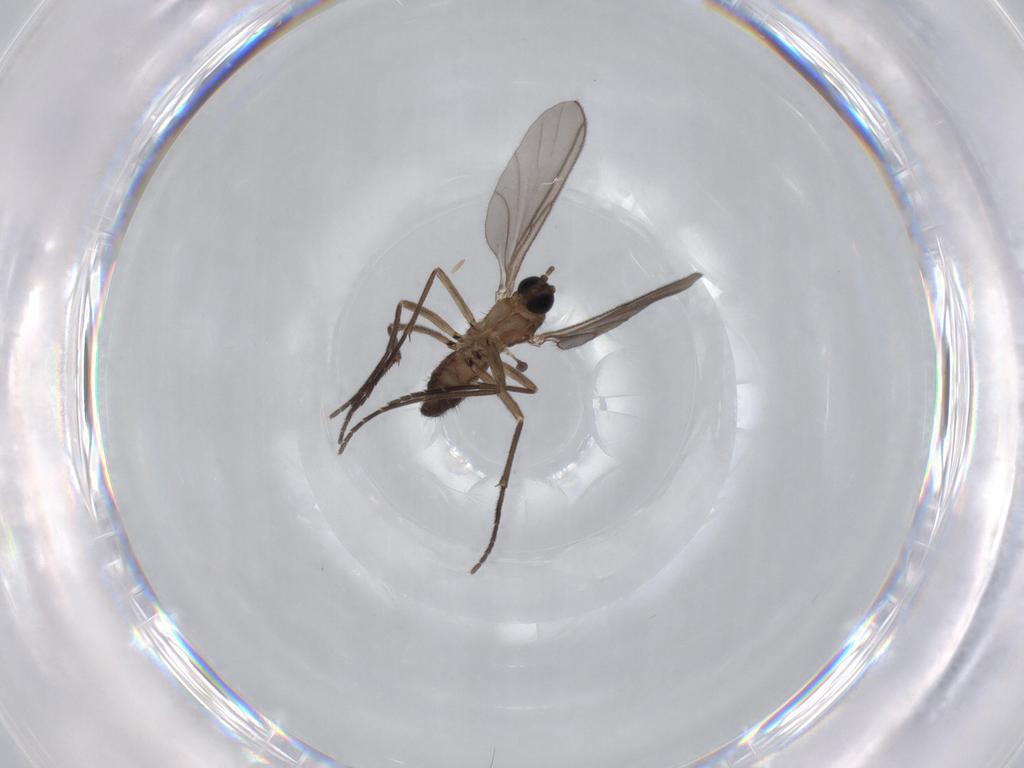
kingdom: Animalia
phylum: Arthropoda
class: Insecta
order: Diptera
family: Sciaridae
